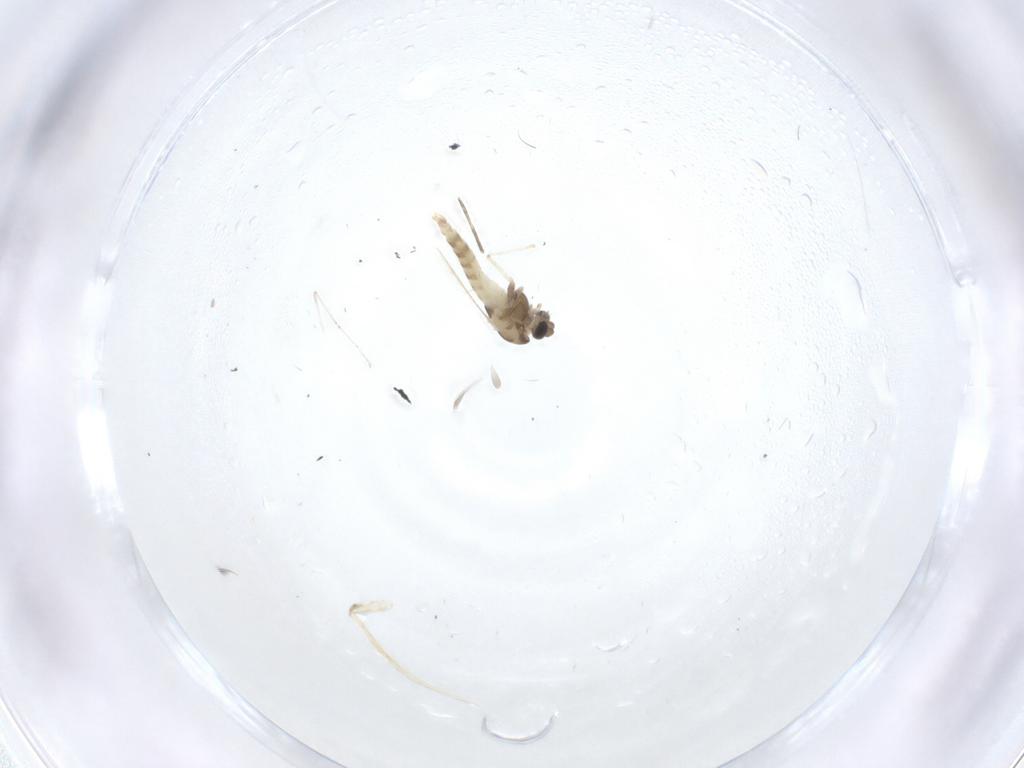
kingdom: Animalia
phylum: Arthropoda
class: Insecta
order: Diptera
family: Cecidomyiidae
